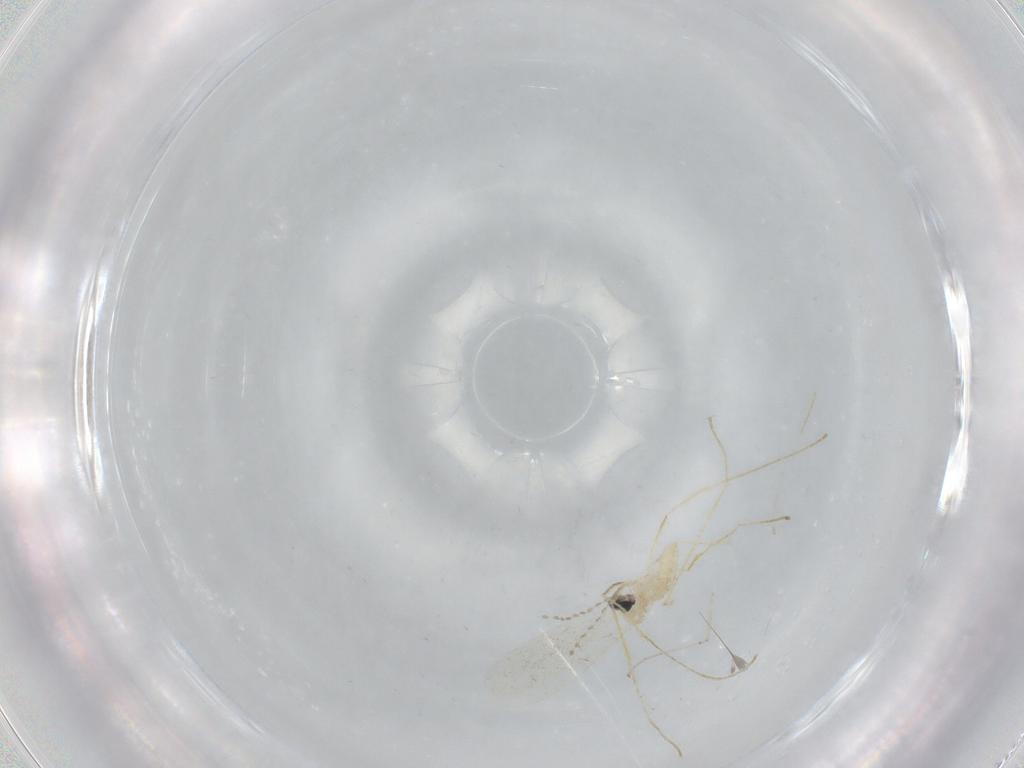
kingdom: Animalia
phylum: Arthropoda
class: Insecta
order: Diptera
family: Cecidomyiidae
